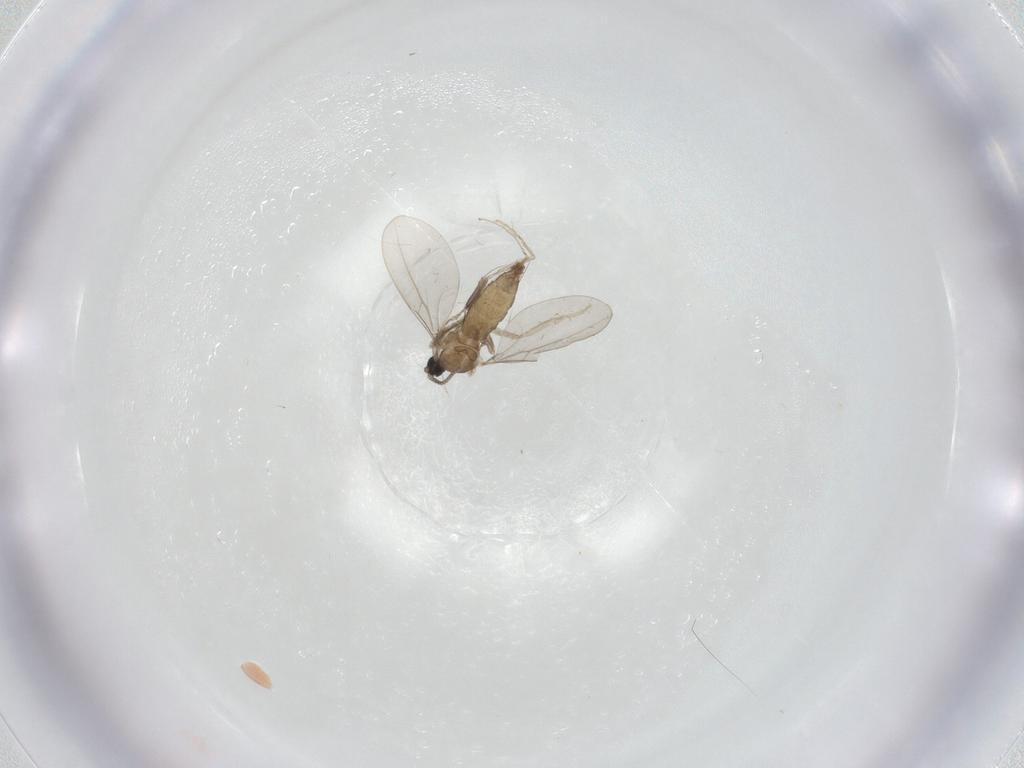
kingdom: Animalia
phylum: Arthropoda
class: Insecta
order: Diptera
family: Cecidomyiidae
